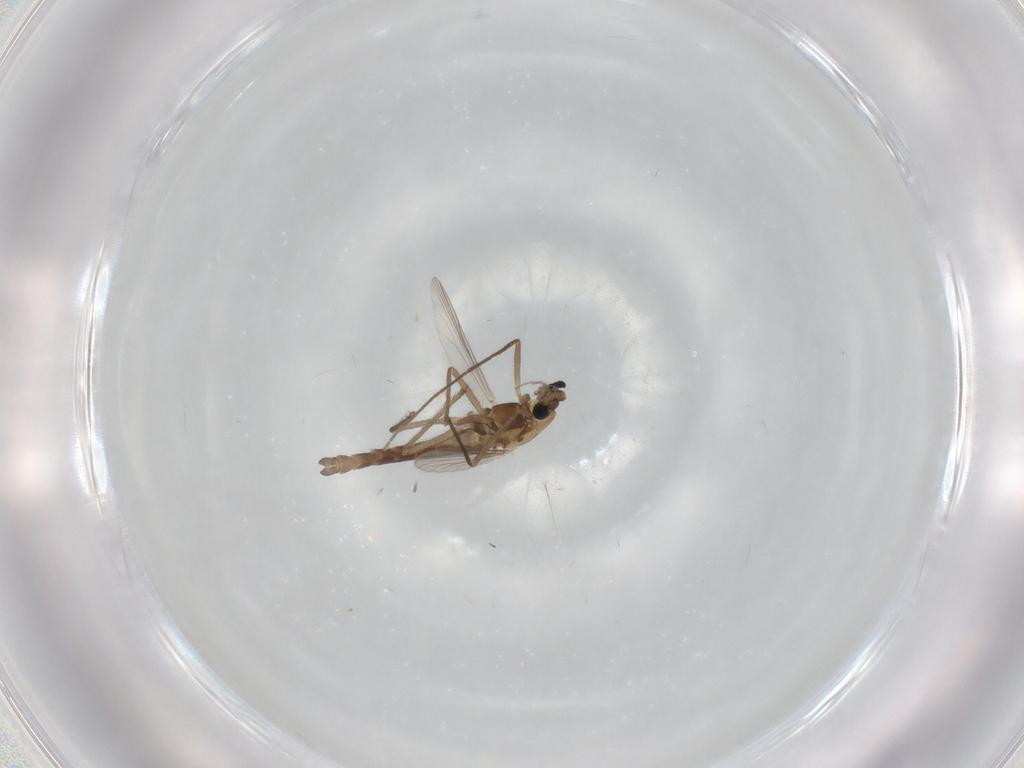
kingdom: Animalia
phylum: Arthropoda
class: Insecta
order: Diptera
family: Chironomidae
